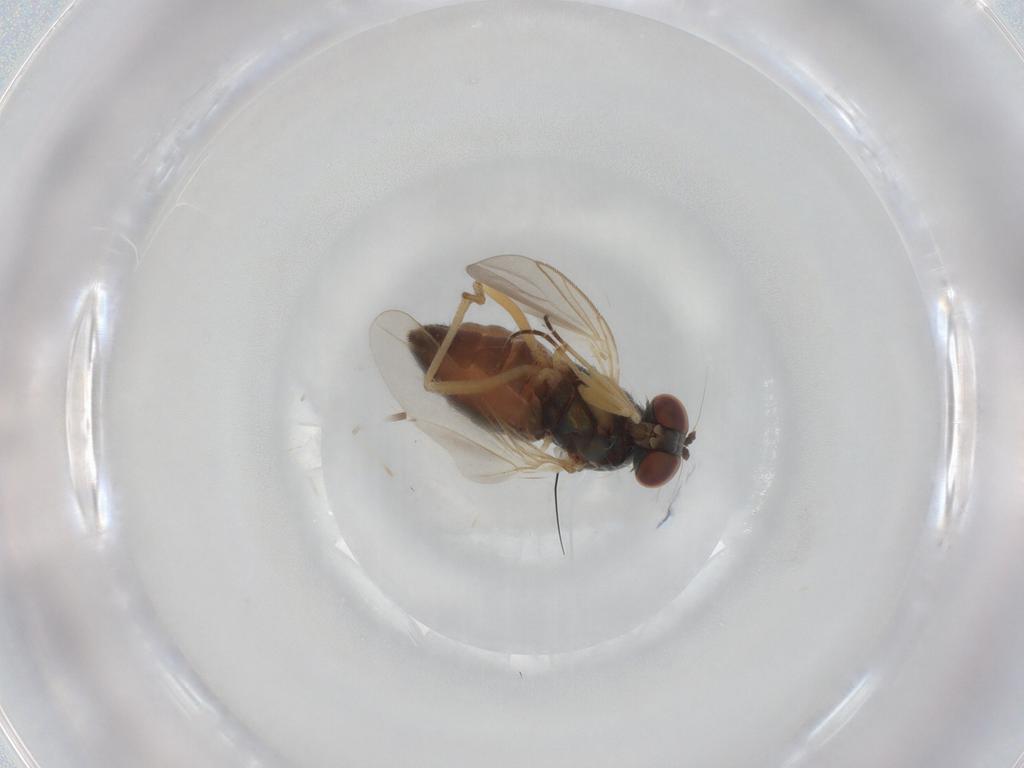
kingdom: Animalia
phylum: Arthropoda
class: Insecta
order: Diptera
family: Dolichopodidae
